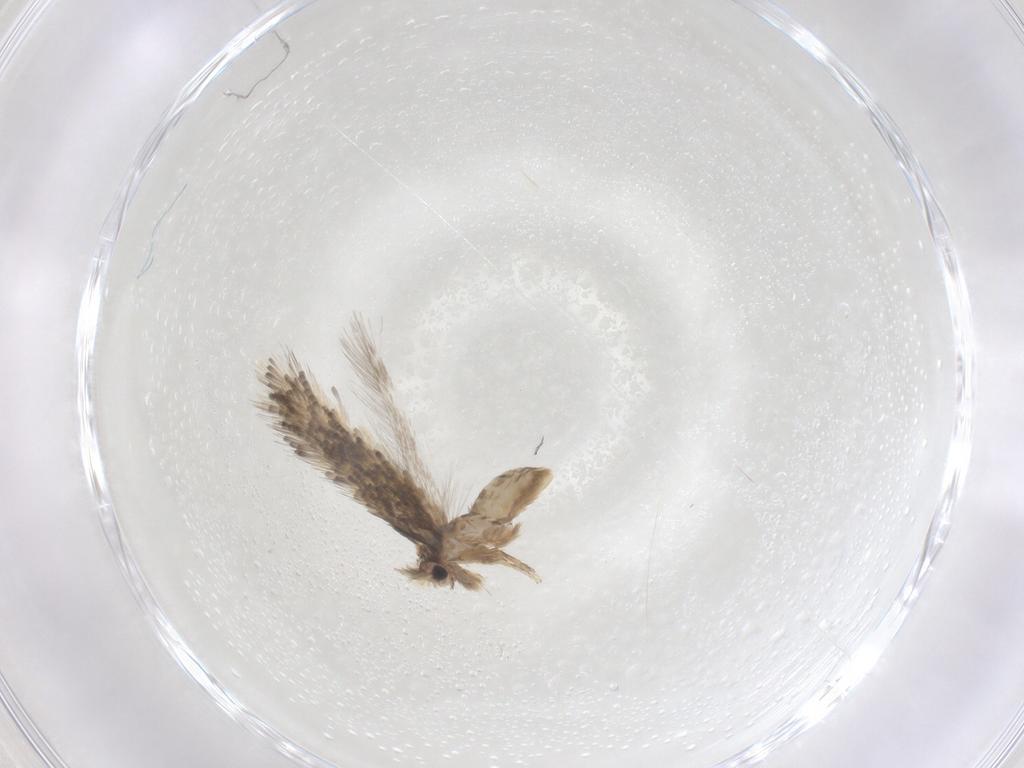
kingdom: Animalia
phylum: Arthropoda
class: Insecta
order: Lepidoptera
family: Nepticulidae
